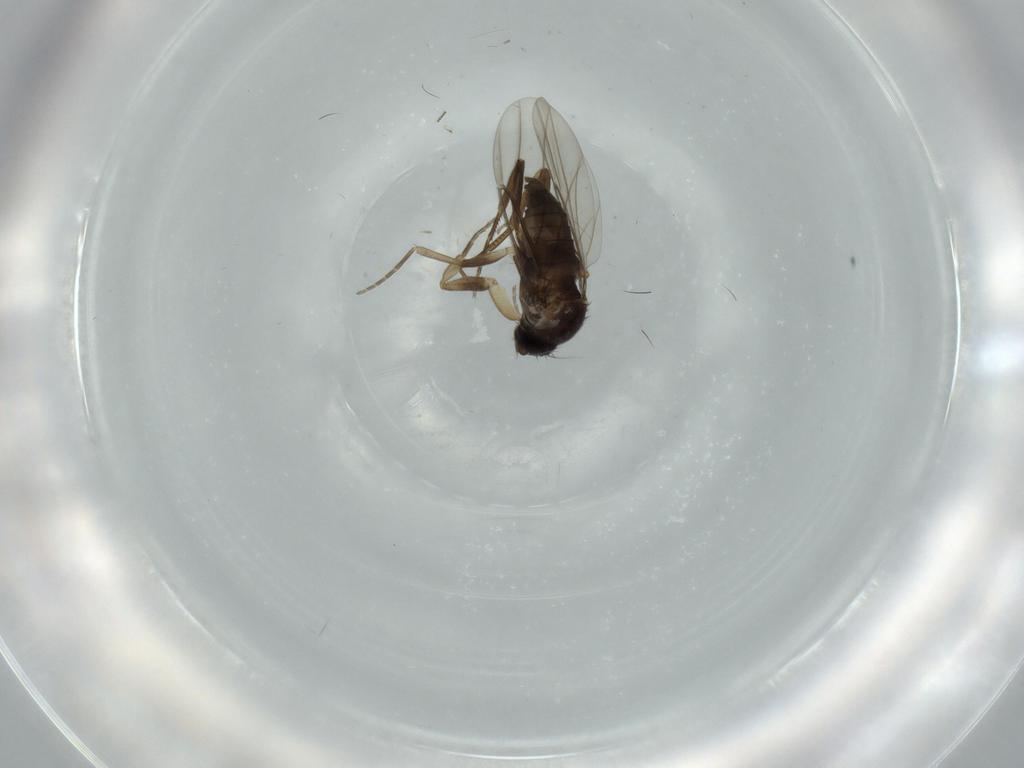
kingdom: Animalia
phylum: Arthropoda
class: Insecta
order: Diptera
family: Phoridae
